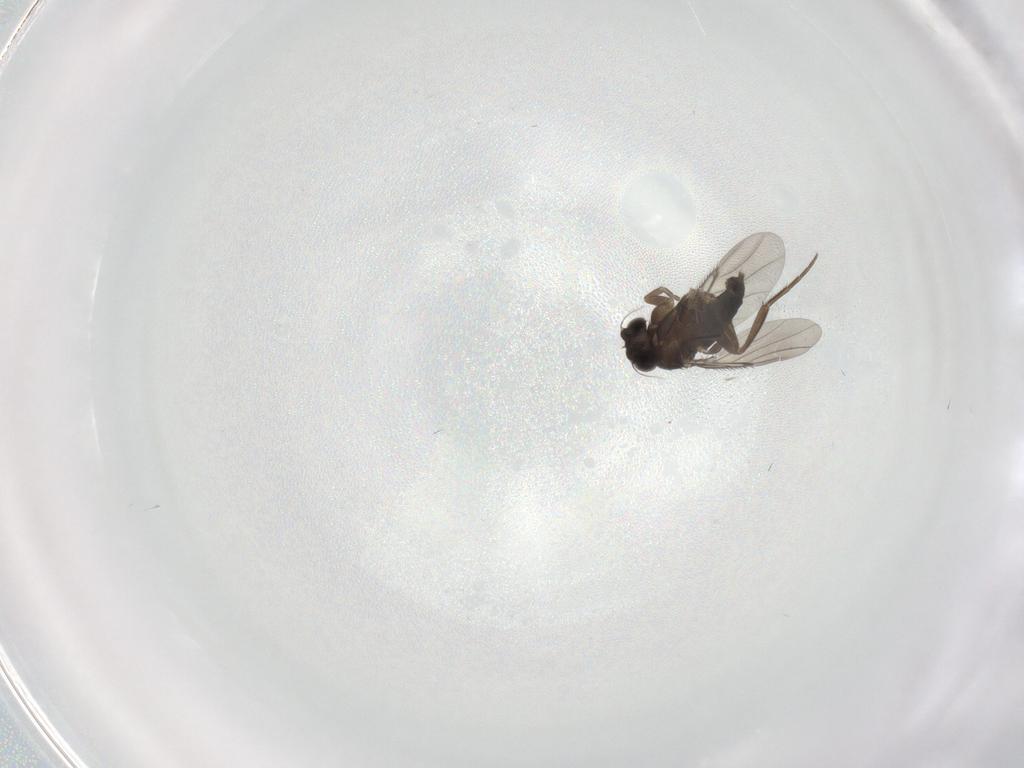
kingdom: Animalia
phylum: Arthropoda
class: Insecta
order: Diptera
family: Phoridae
